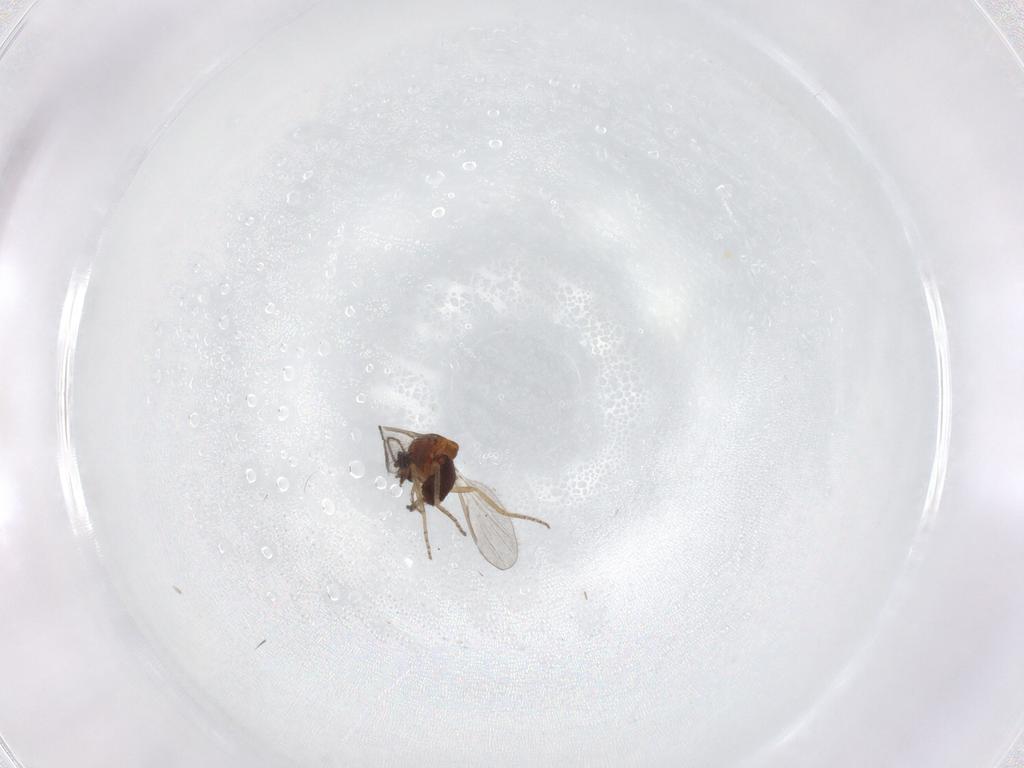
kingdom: Animalia
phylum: Arthropoda
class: Insecta
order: Diptera
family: Ceratopogonidae
